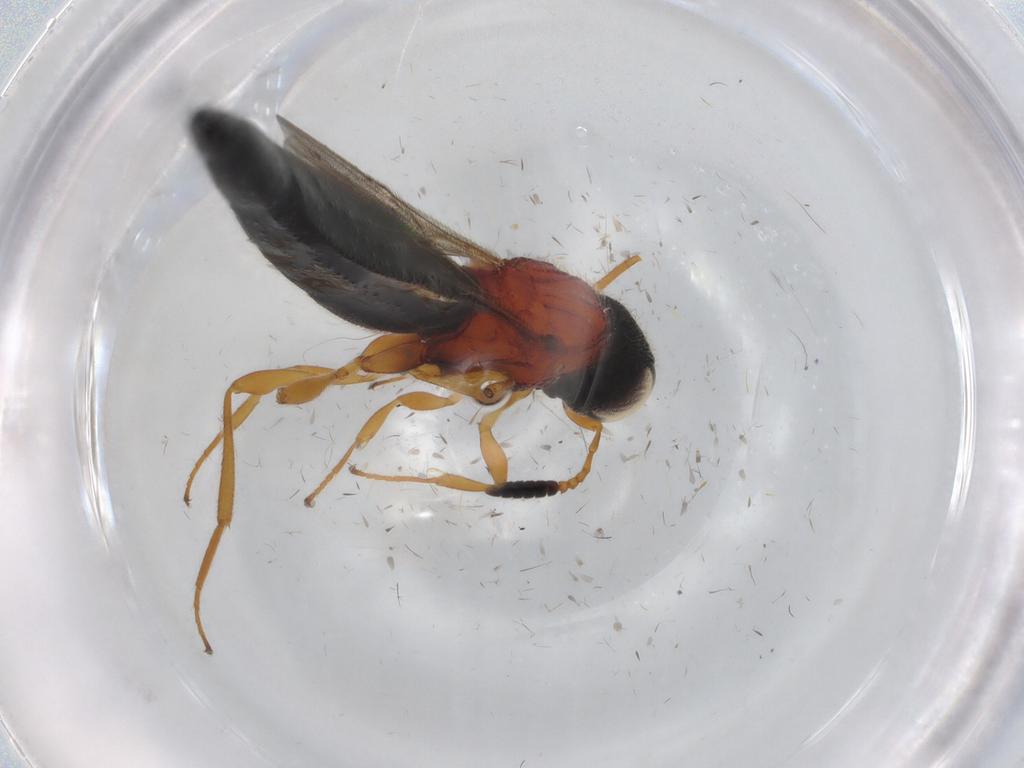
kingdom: Animalia
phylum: Arthropoda
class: Insecta
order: Hymenoptera
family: Formicidae
